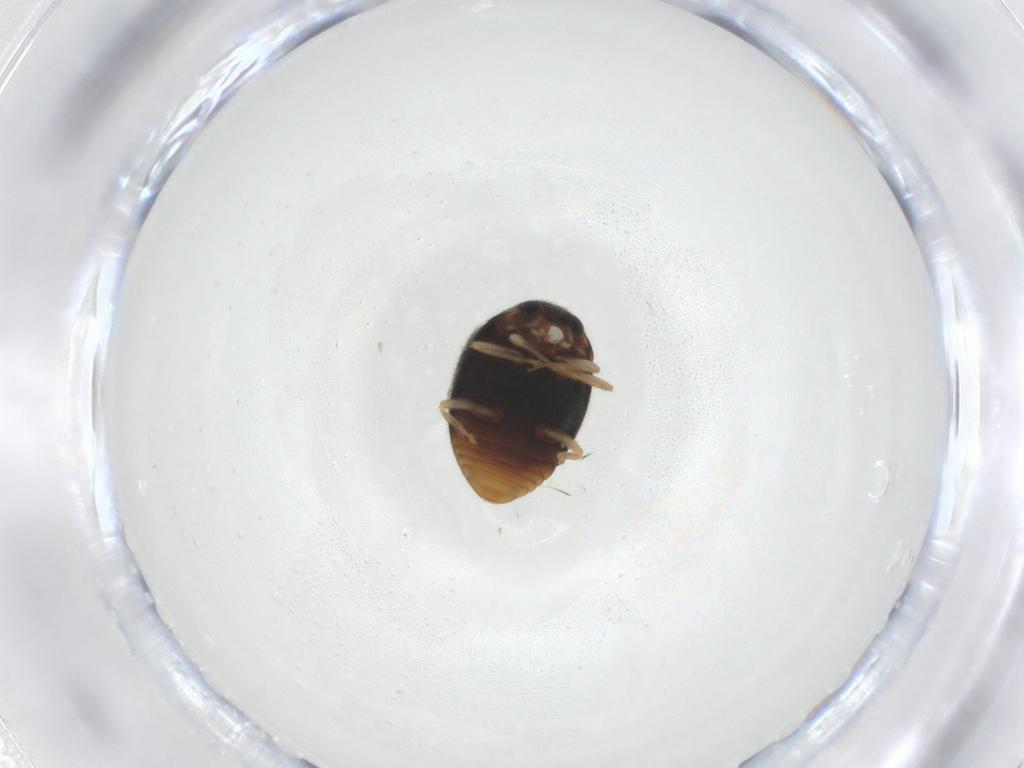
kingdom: Animalia
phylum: Arthropoda
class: Insecta
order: Coleoptera
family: Coccinellidae
